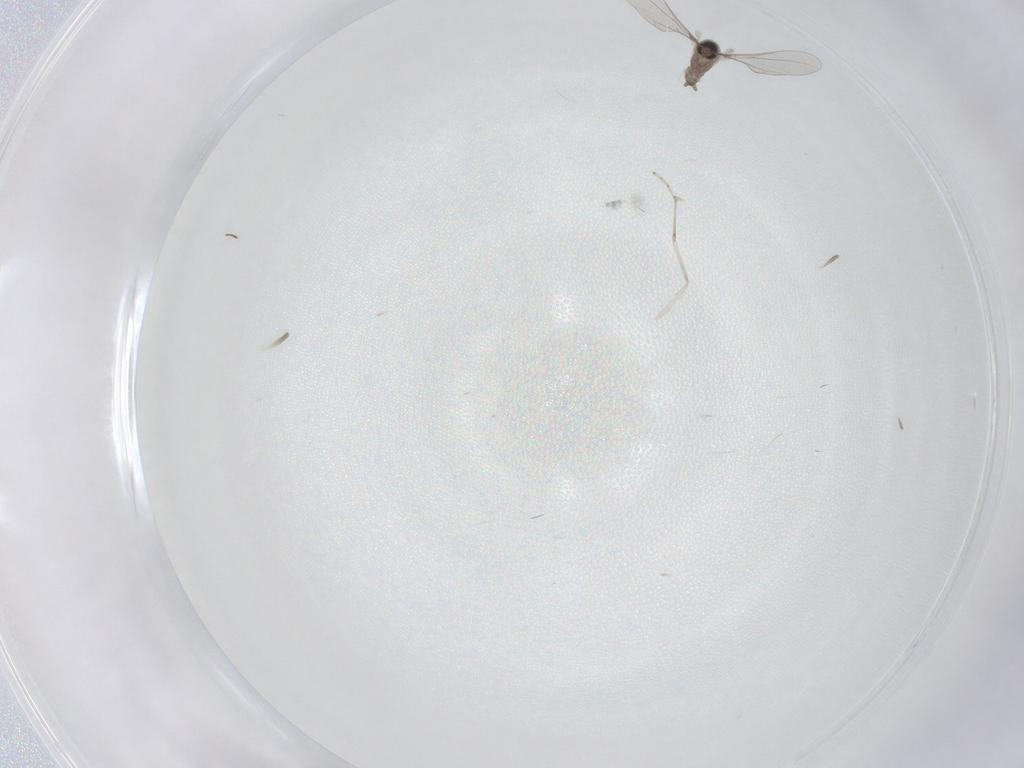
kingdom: Animalia
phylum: Arthropoda
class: Insecta
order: Diptera
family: Cecidomyiidae
